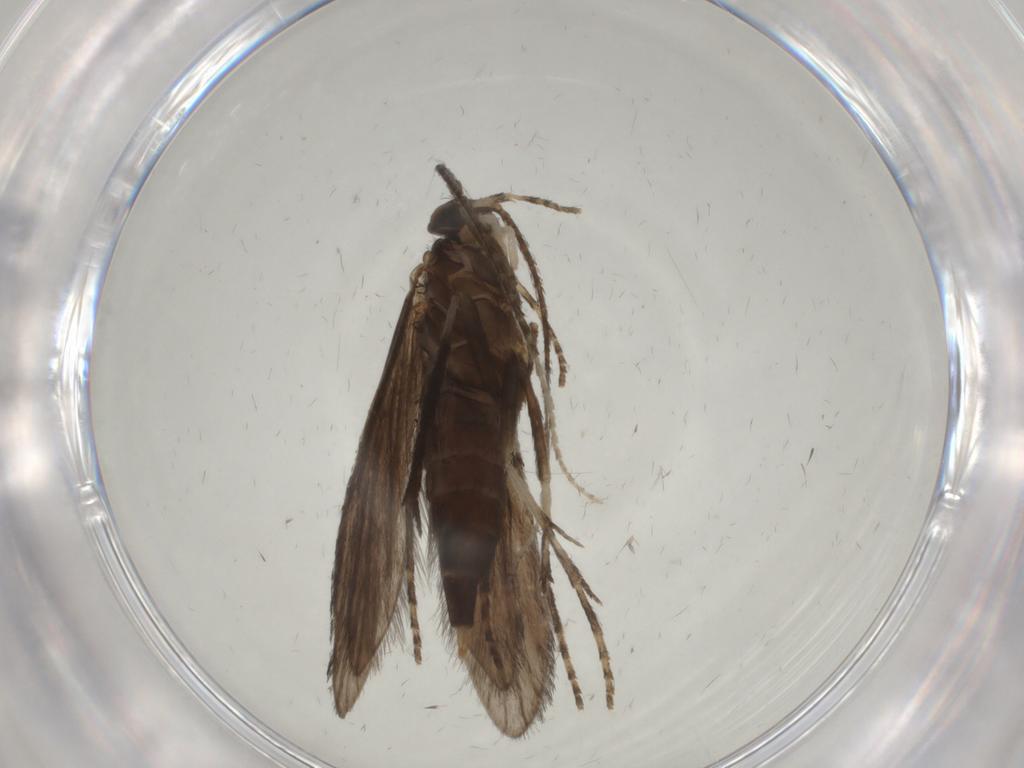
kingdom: Animalia
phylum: Arthropoda
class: Insecta
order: Trichoptera
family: Xiphocentronidae
